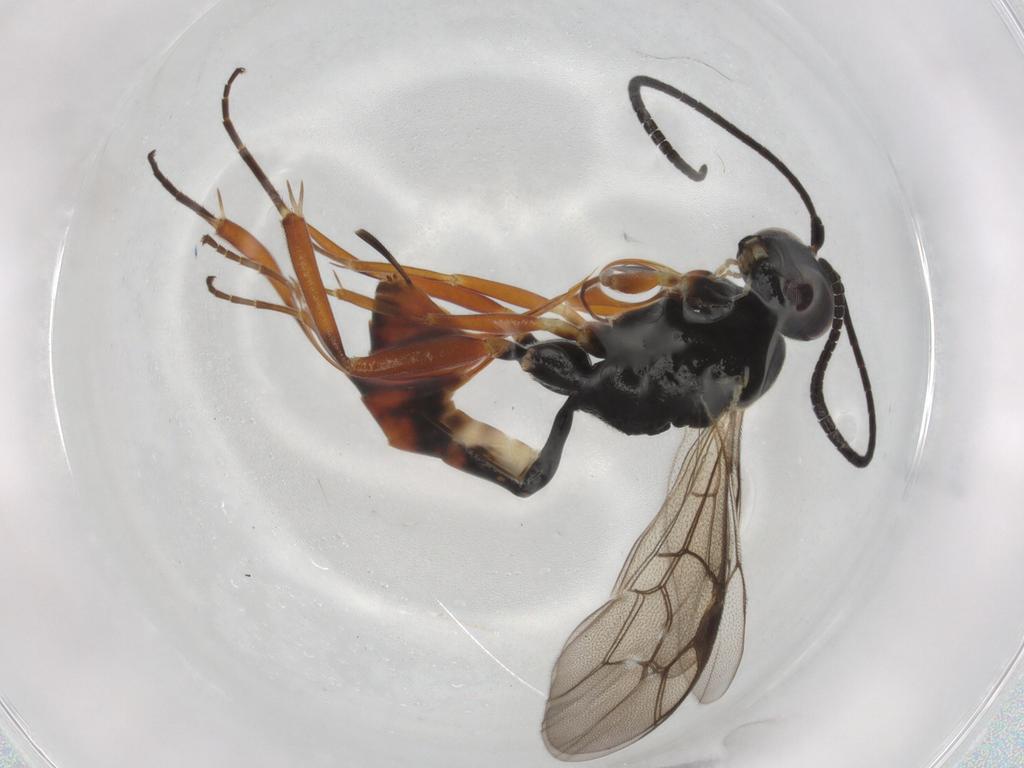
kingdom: Animalia
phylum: Arthropoda
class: Insecta
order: Hymenoptera
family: Ichneumonidae
